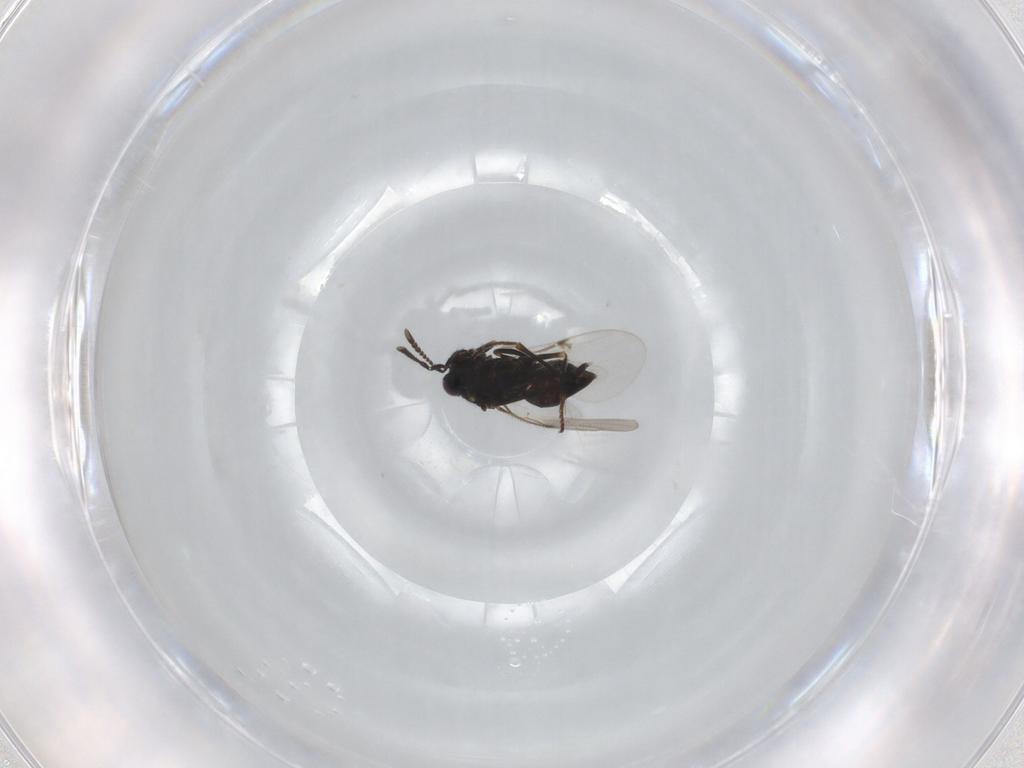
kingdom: Animalia
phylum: Arthropoda
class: Insecta
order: Hymenoptera
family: Encyrtidae
